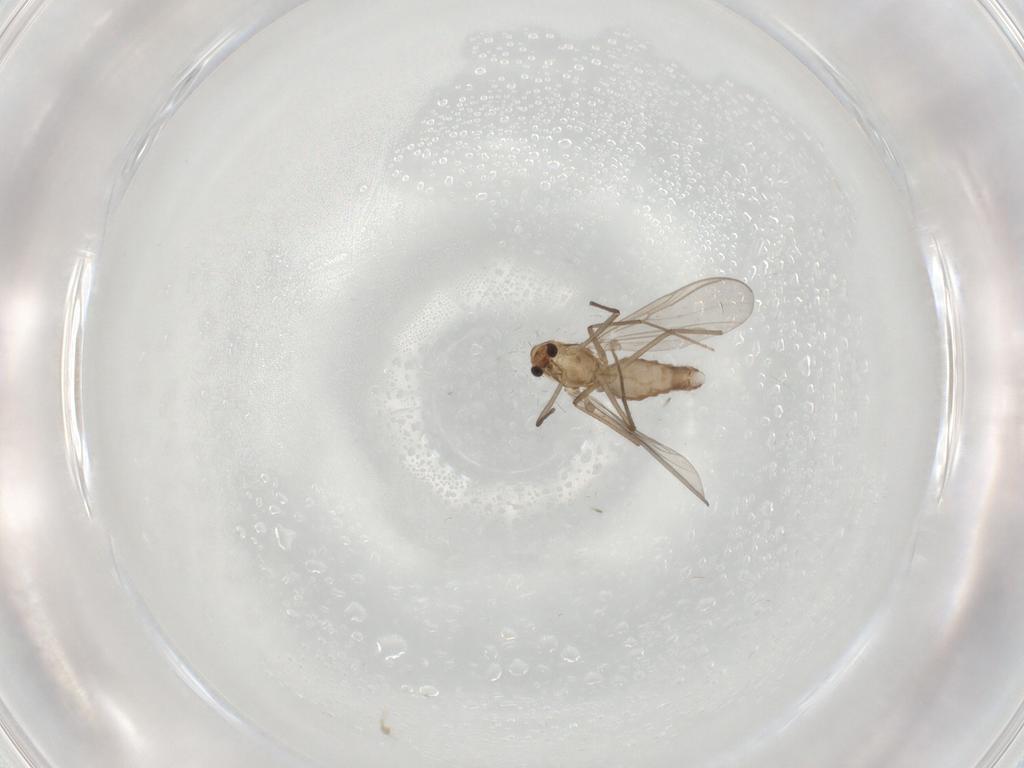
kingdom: Animalia
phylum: Arthropoda
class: Insecta
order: Diptera
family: Chironomidae
